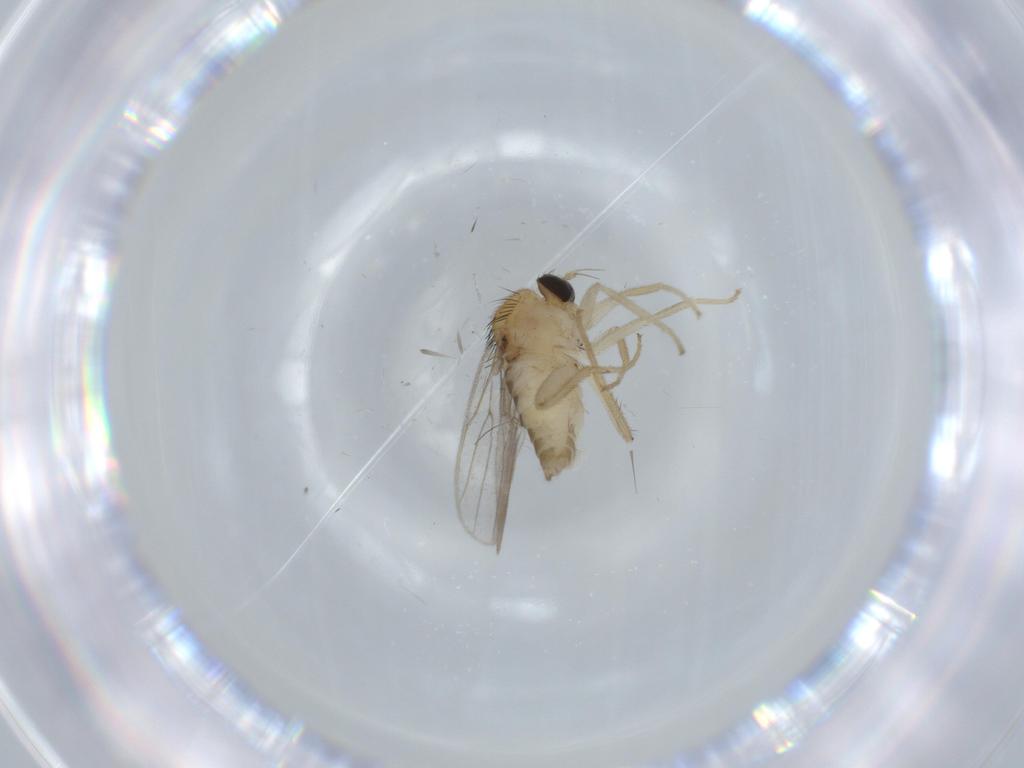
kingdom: Animalia
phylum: Arthropoda
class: Insecta
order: Diptera
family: Hybotidae
